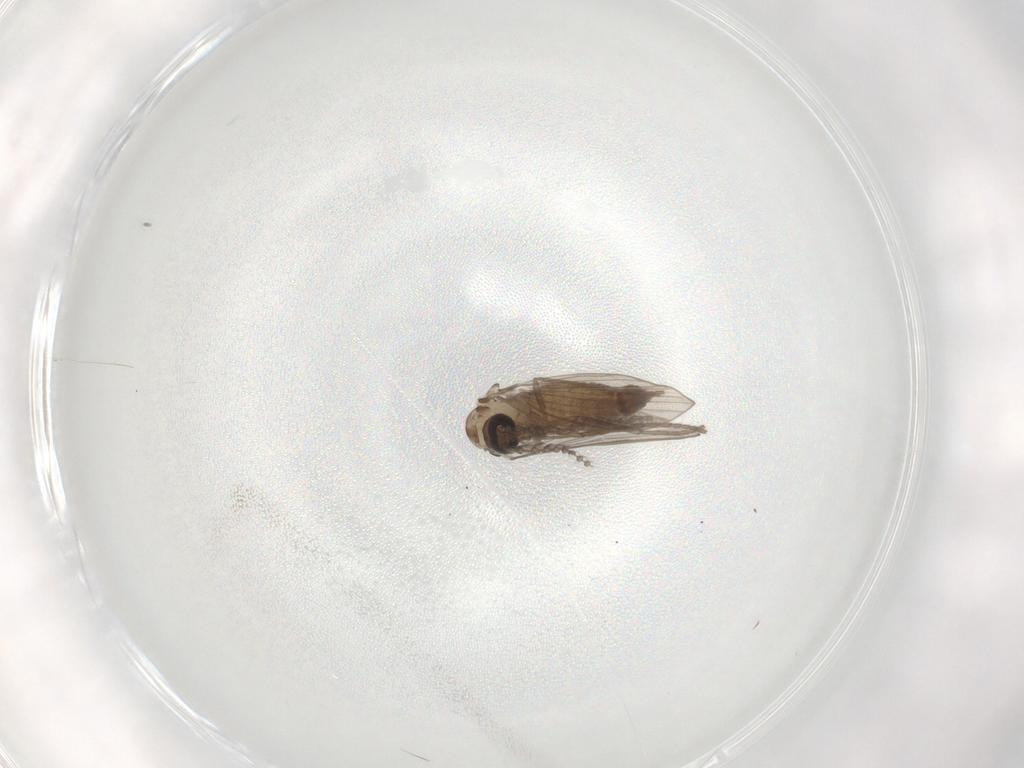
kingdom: Animalia
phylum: Arthropoda
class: Insecta
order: Diptera
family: Psychodidae
